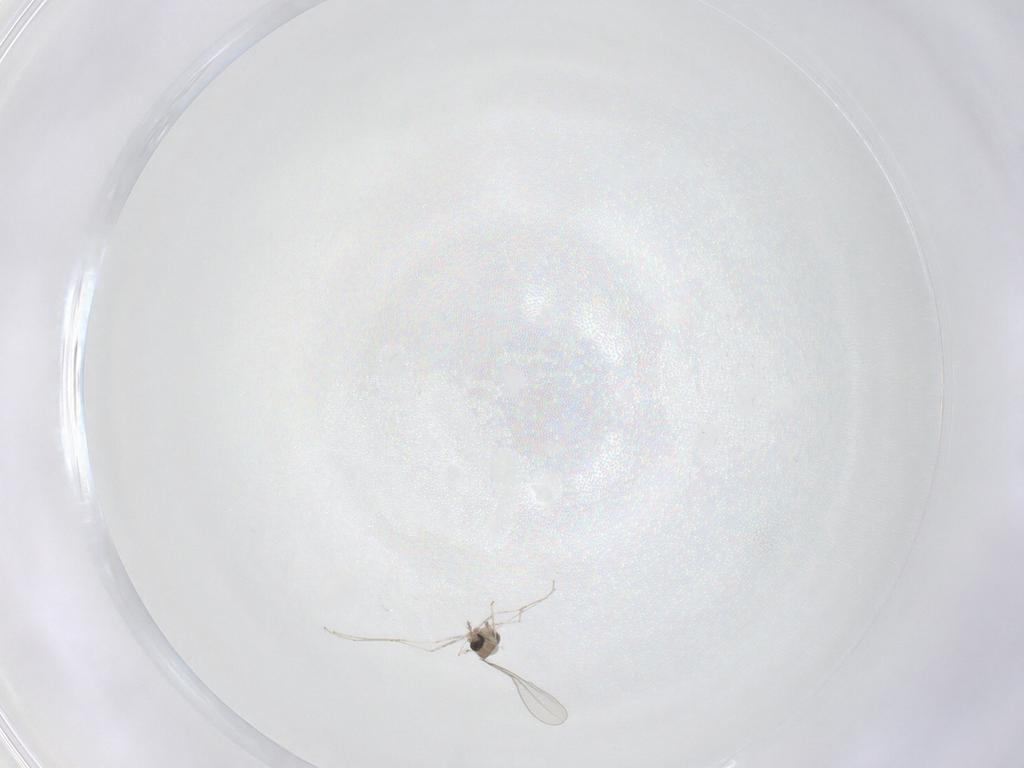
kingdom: Animalia
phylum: Arthropoda
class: Insecta
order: Diptera
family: Cecidomyiidae
